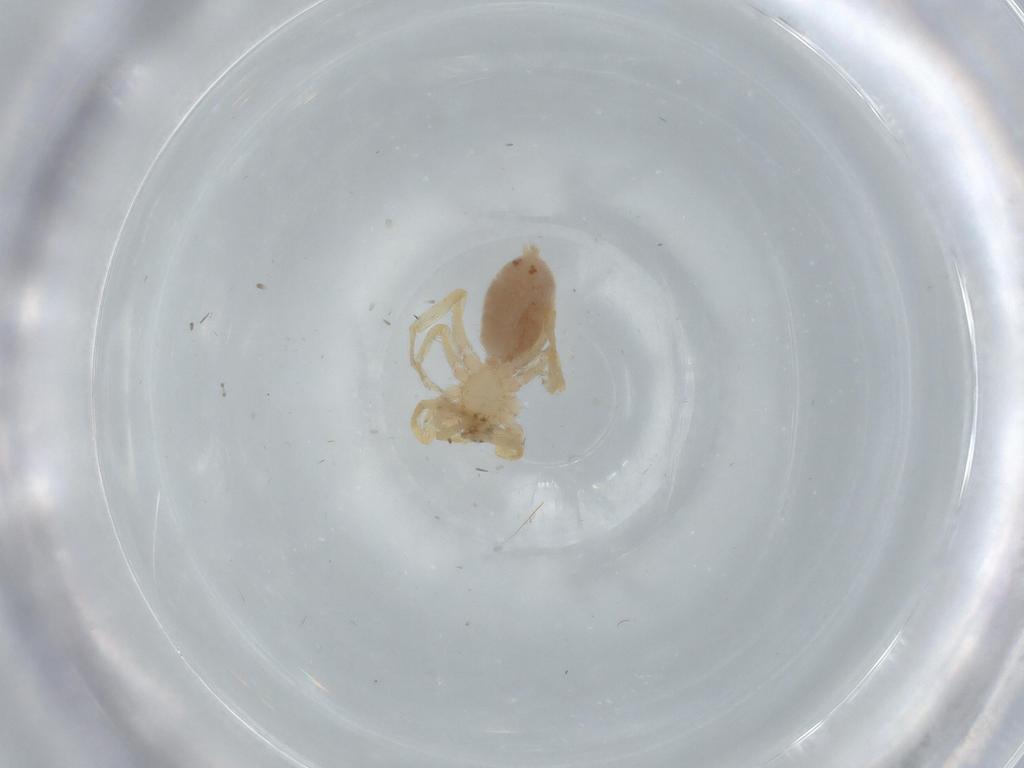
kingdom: Animalia
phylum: Arthropoda
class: Arachnida
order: Araneae
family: Oonopidae
